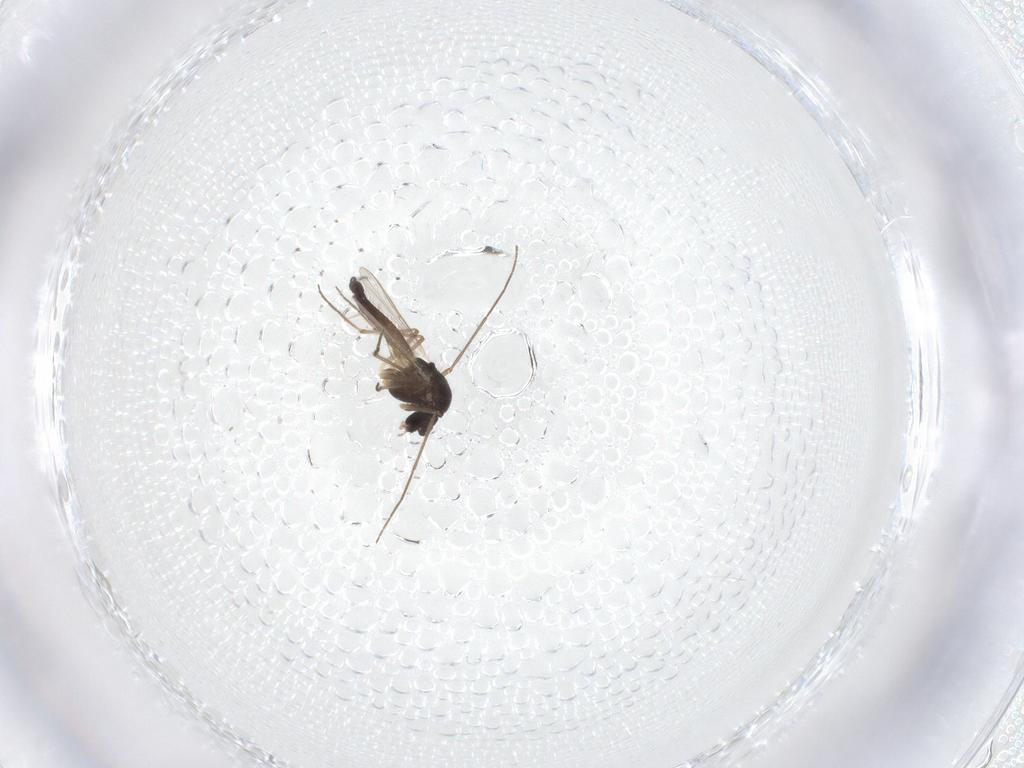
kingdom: Animalia
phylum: Arthropoda
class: Insecta
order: Diptera
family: Chironomidae
